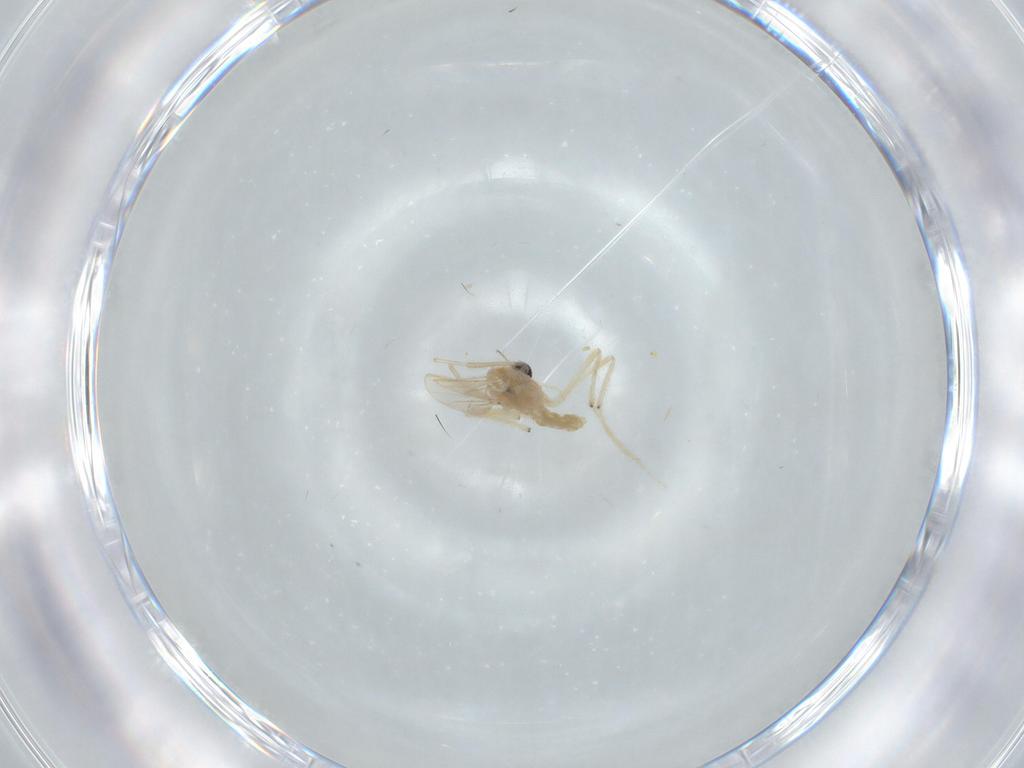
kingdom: Animalia
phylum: Arthropoda
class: Insecta
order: Diptera
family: Chironomidae
